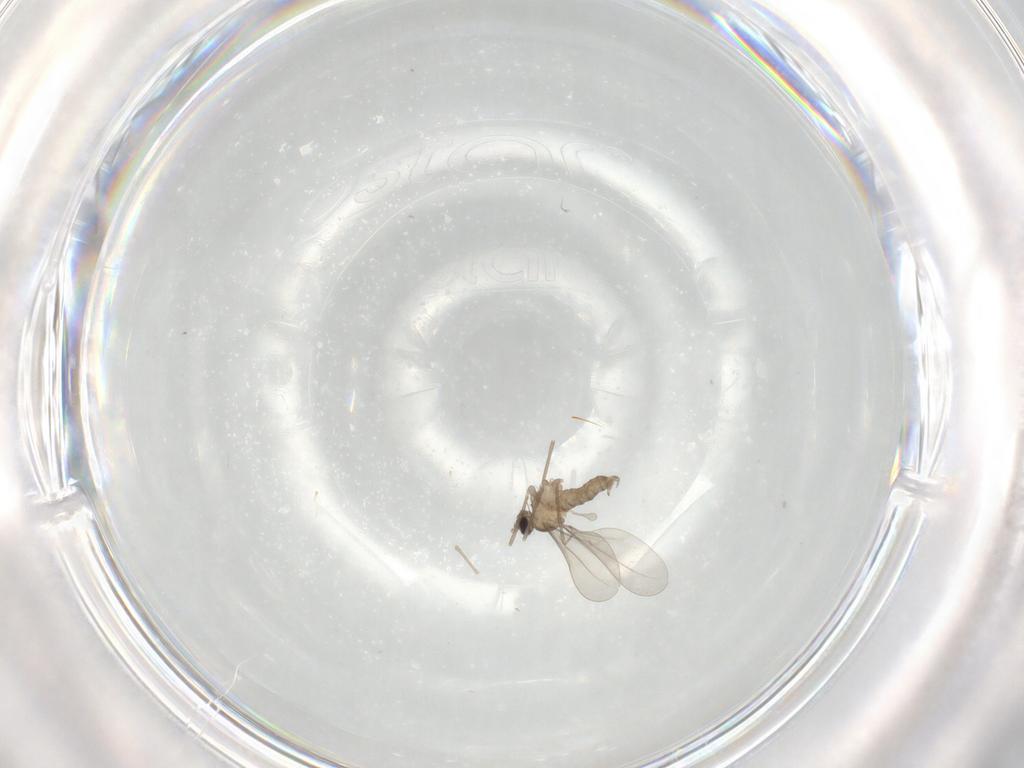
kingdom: Animalia
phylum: Arthropoda
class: Insecta
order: Diptera
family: Cecidomyiidae
